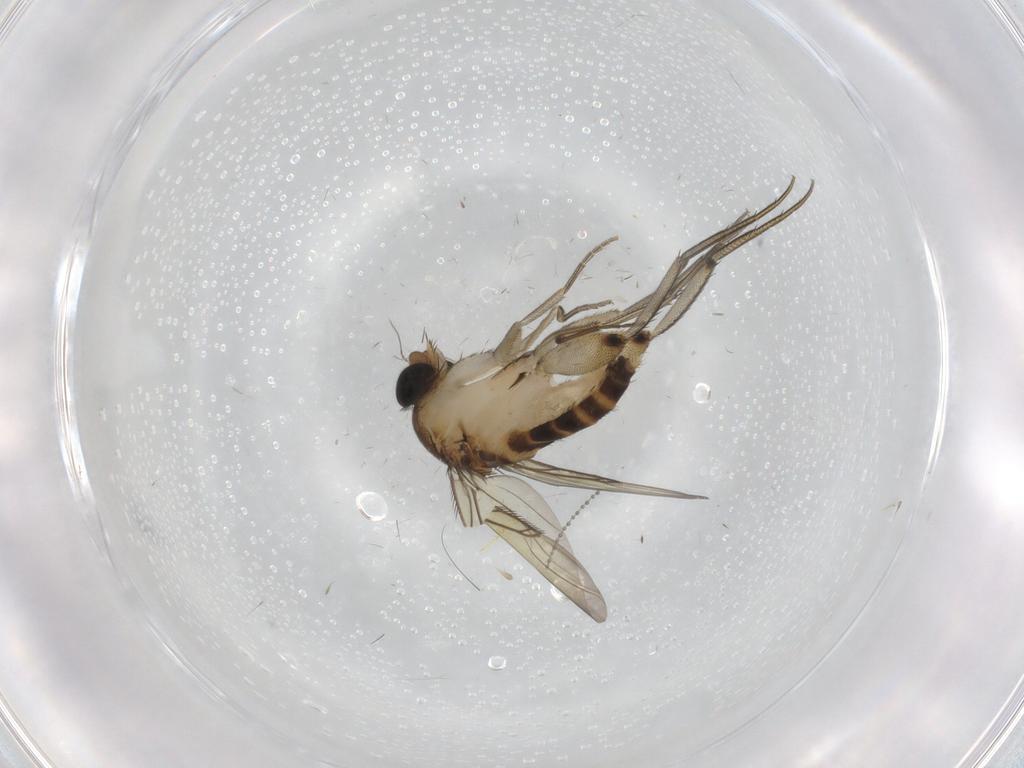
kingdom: Animalia
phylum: Arthropoda
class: Insecta
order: Diptera
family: Phoridae
